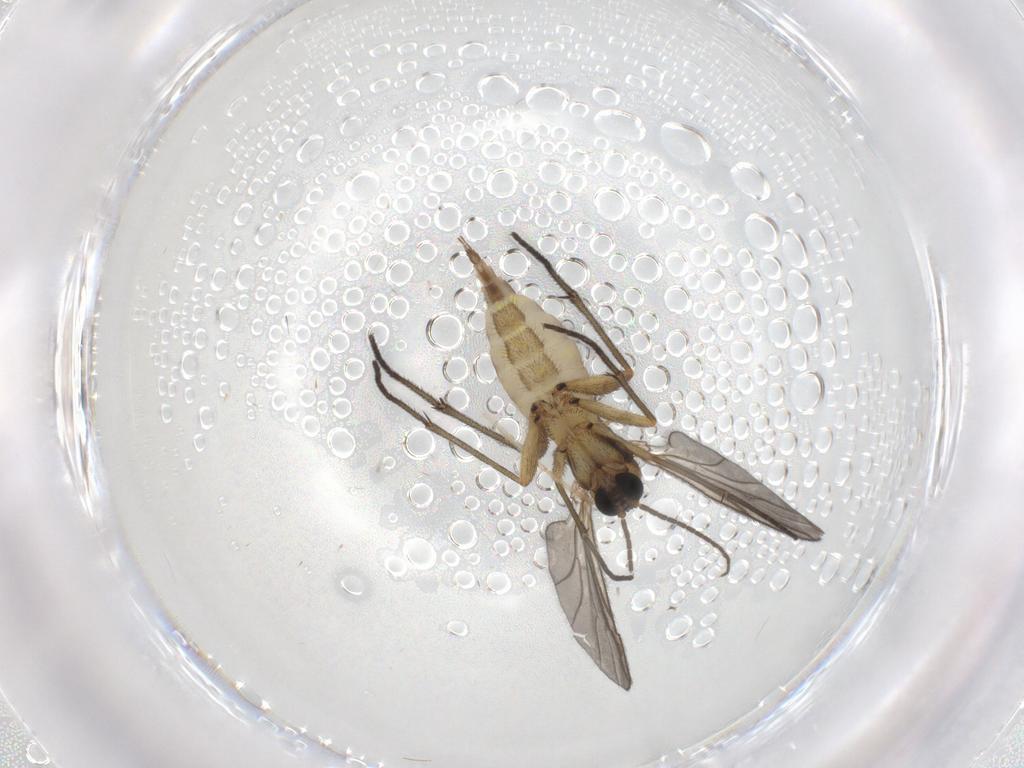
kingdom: Animalia
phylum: Arthropoda
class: Insecta
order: Diptera
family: Sciaridae
